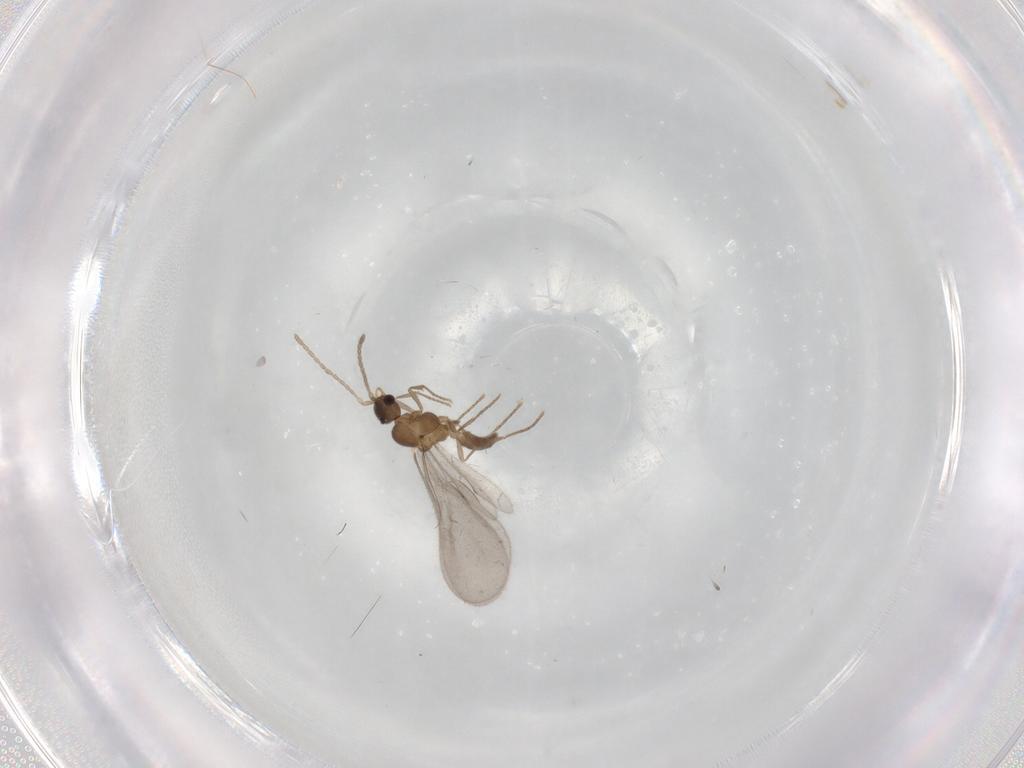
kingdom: Animalia
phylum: Arthropoda
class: Insecta
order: Hymenoptera
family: Formicidae
